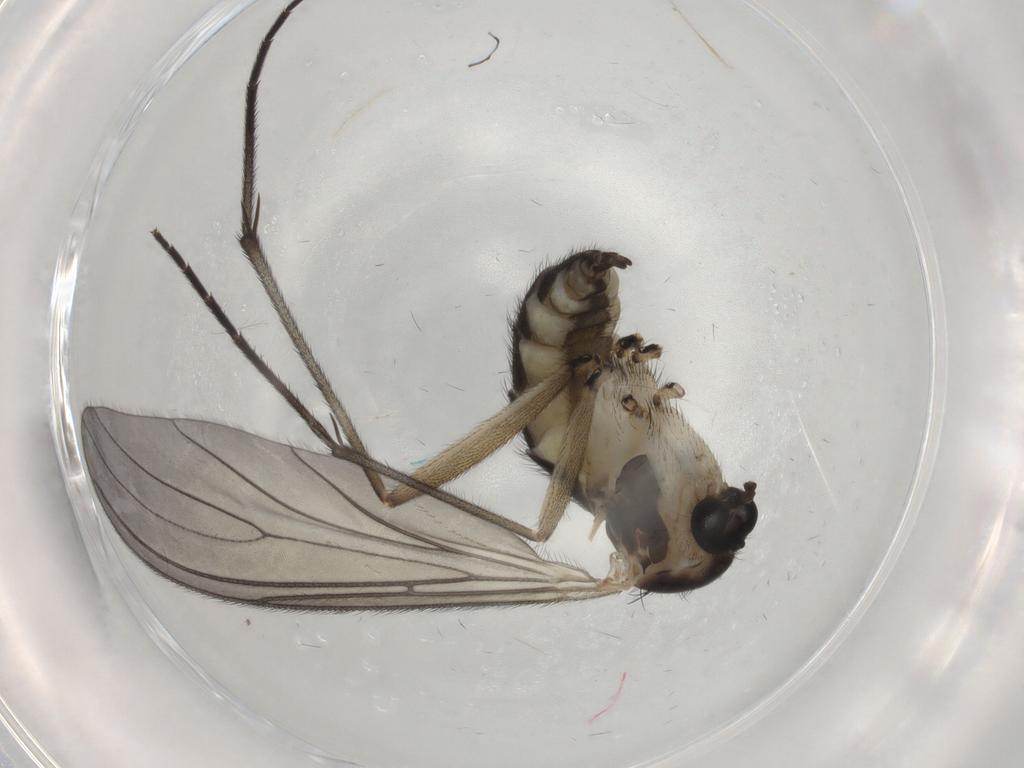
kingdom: Animalia
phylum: Arthropoda
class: Insecta
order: Diptera
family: Sciaridae
